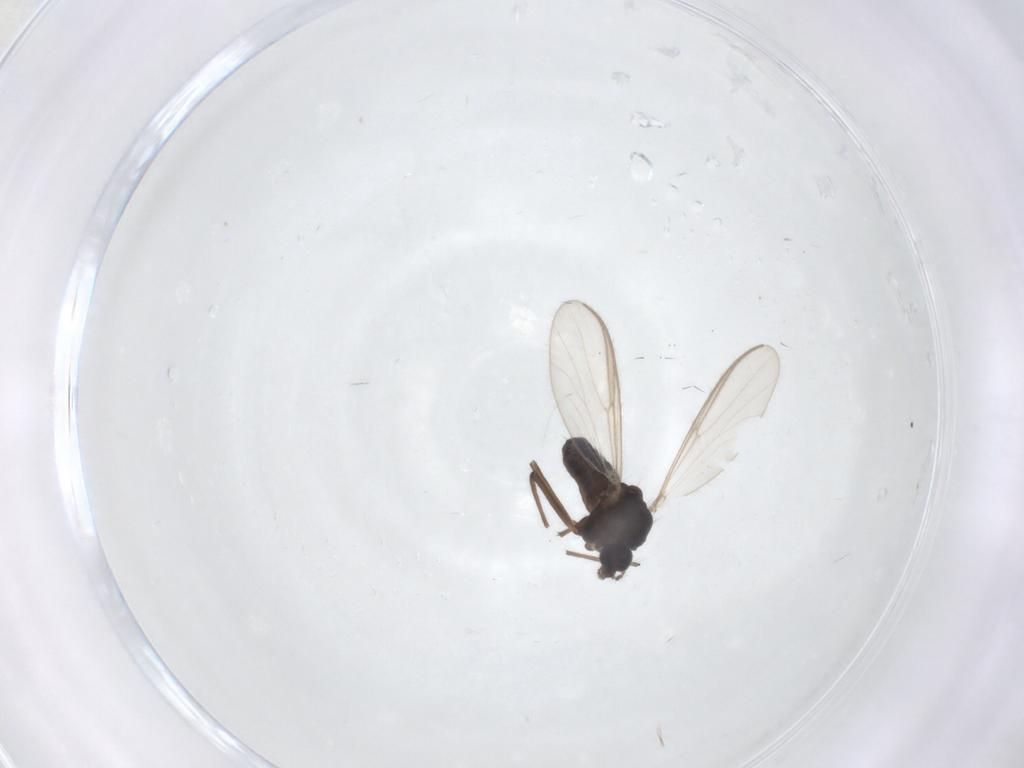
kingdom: Animalia
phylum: Arthropoda
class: Insecta
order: Diptera
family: Chironomidae
